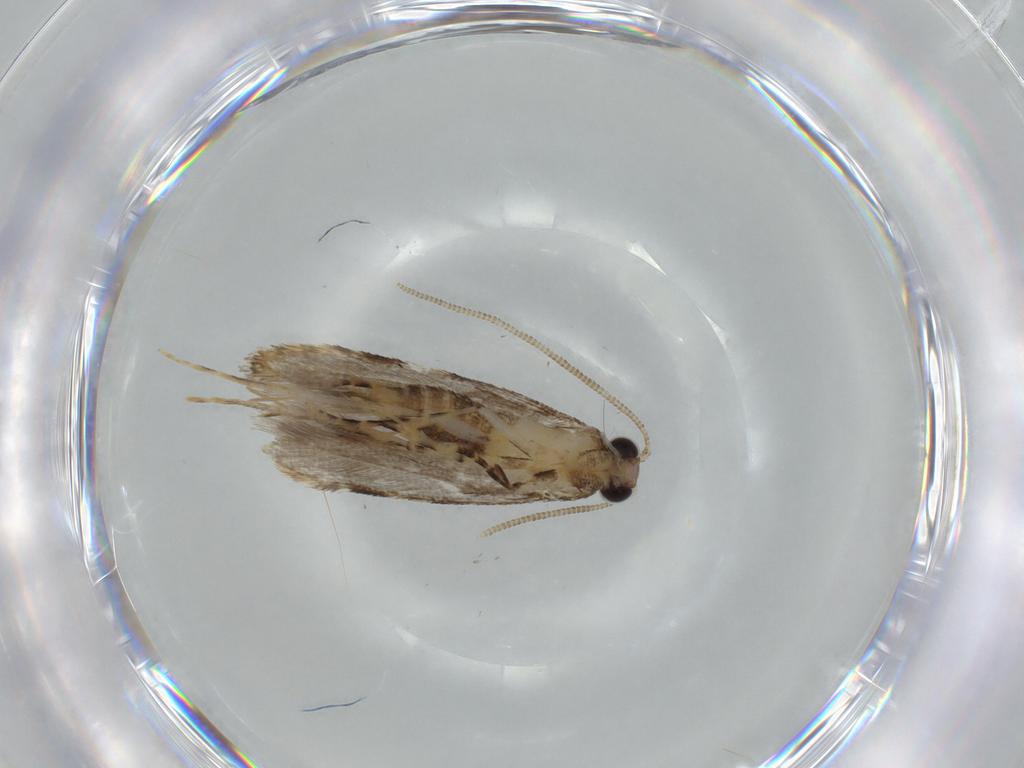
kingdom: Animalia
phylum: Arthropoda
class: Insecta
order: Lepidoptera
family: Tineidae
